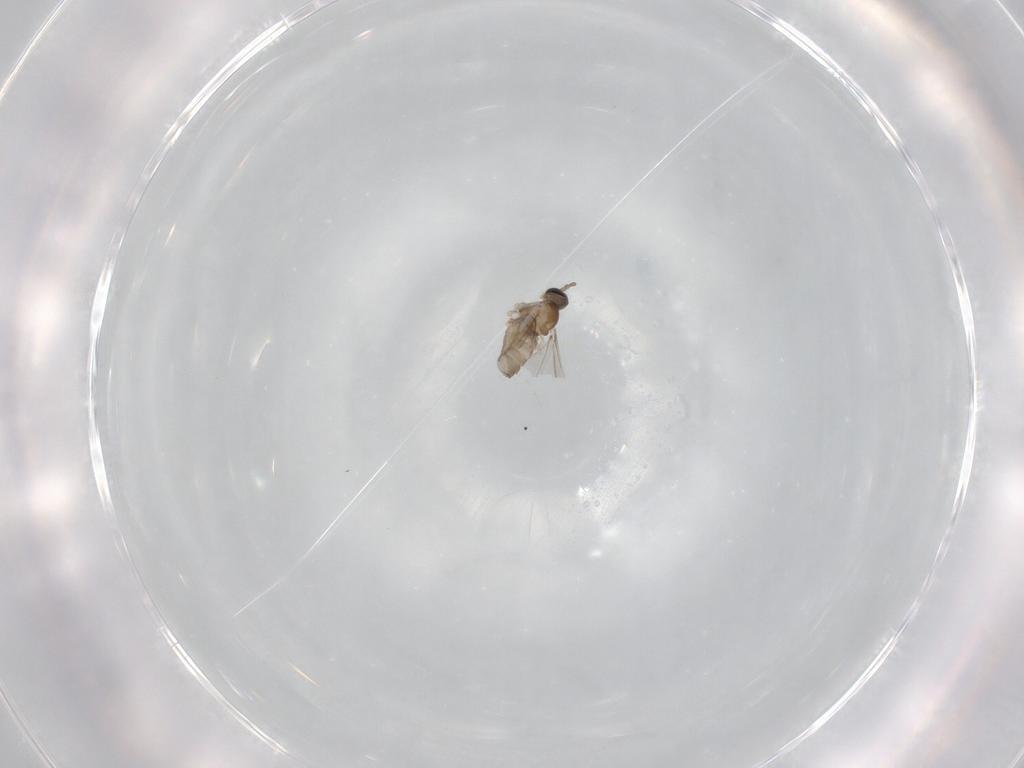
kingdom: Animalia
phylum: Arthropoda
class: Insecta
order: Diptera
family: Cecidomyiidae
